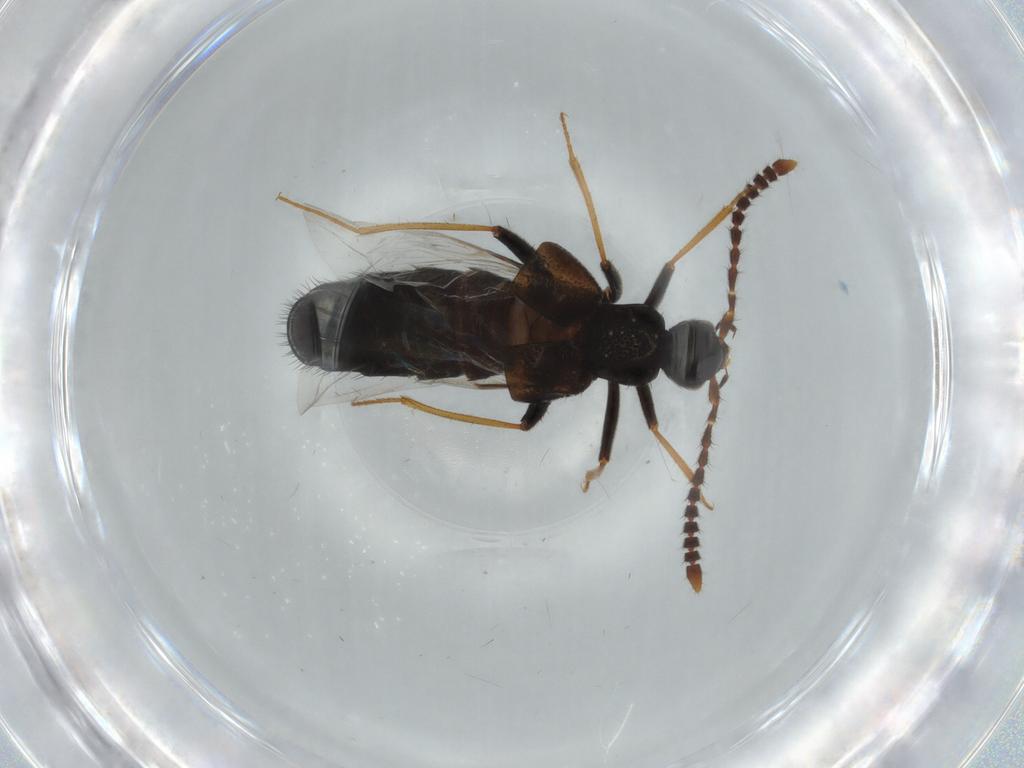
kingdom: Animalia
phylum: Arthropoda
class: Insecta
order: Coleoptera
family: Staphylinidae
